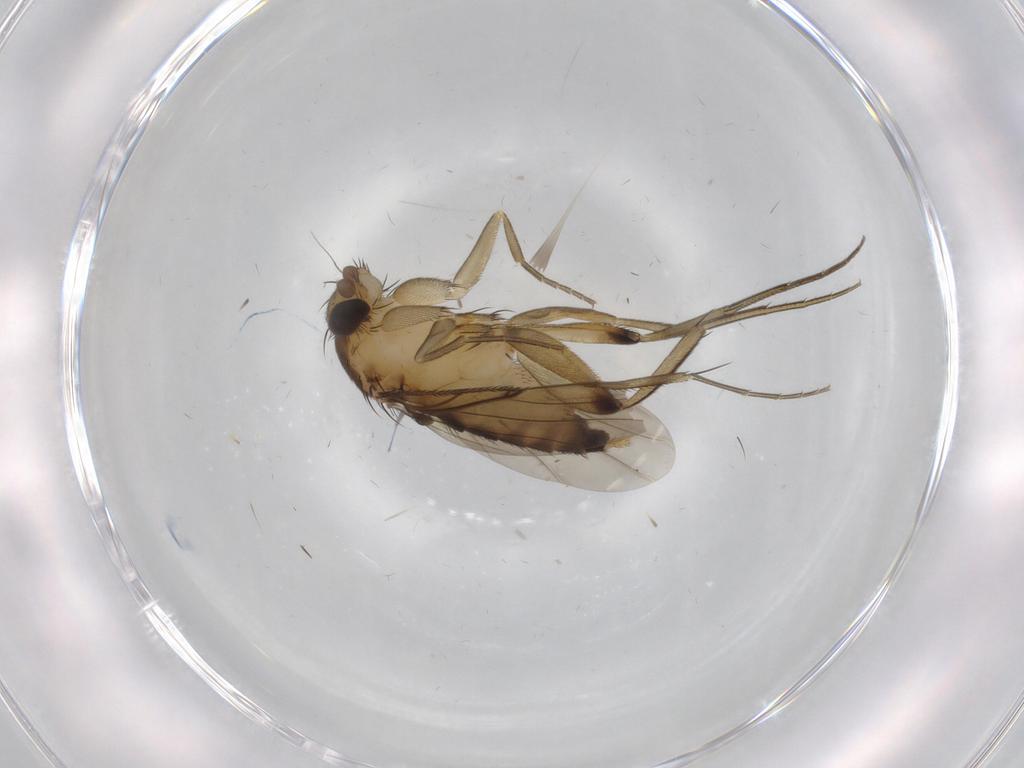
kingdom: Animalia
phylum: Arthropoda
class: Insecta
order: Diptera
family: Phoridae
